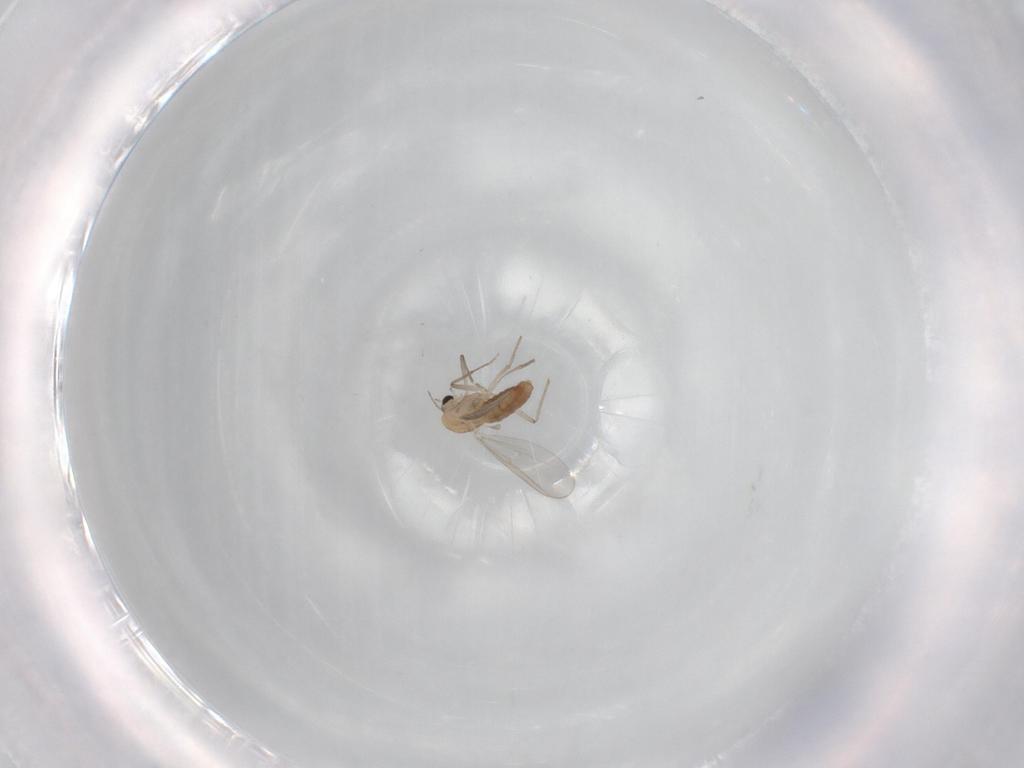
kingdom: Animalia
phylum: Arthropoda
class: Insecta
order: Diptera
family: Chironomidae
